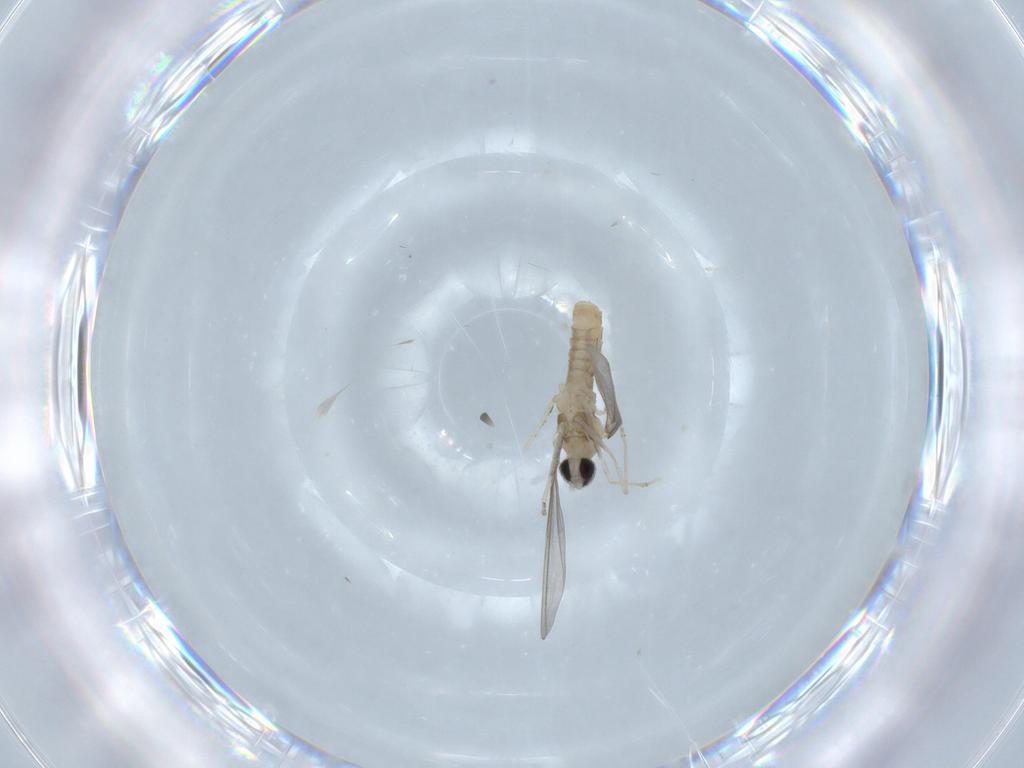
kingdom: Animalia
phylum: Arthropoda
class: Insecta
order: Diptera
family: Cecidomyiidae
